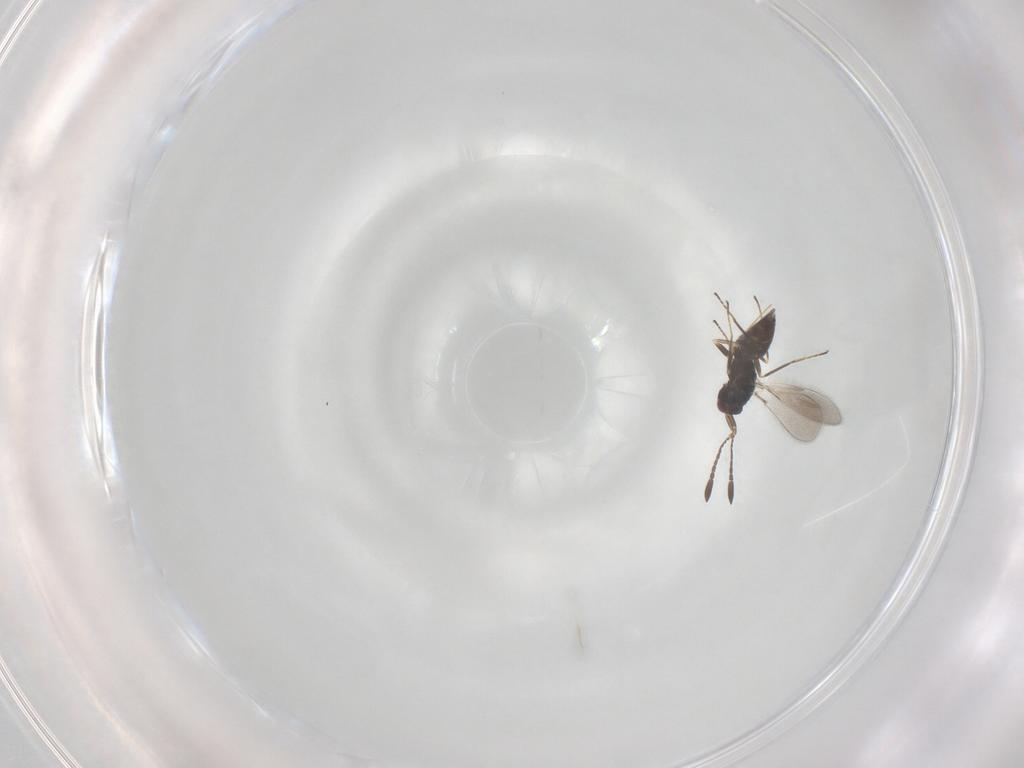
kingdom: Animalia
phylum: Arthropoda
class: Insecta
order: Hymenoptera
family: Mymaridae
